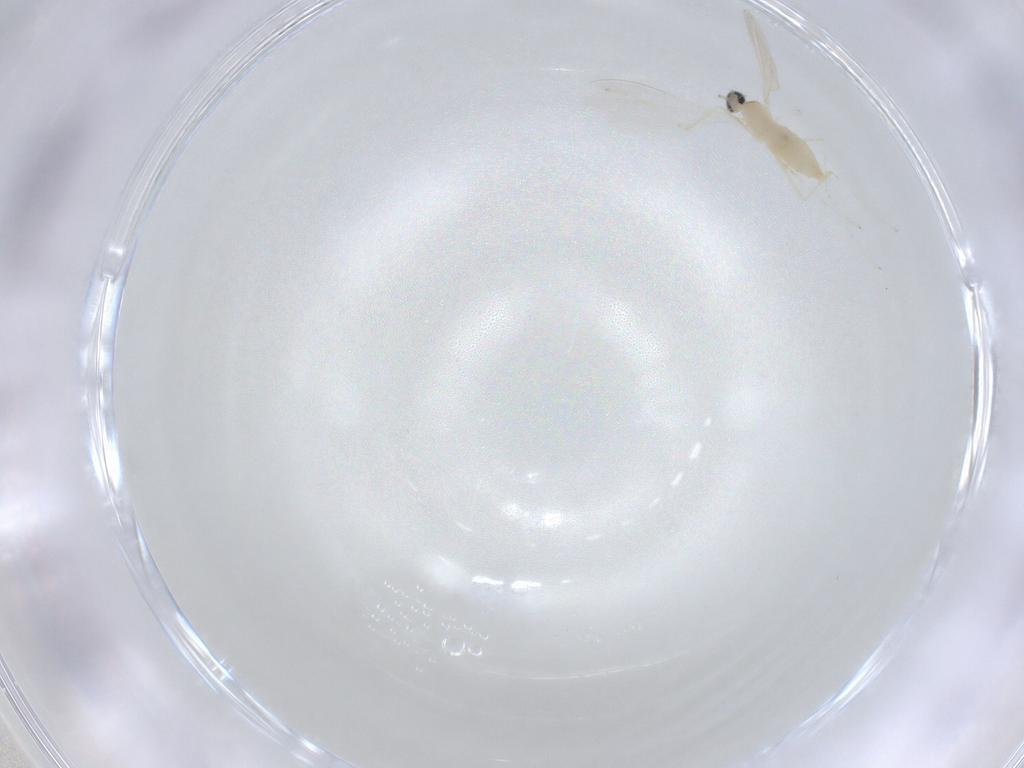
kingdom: Animalia
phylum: Arthropoda
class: Insecta
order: Diptera
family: Cecidomyiidae
